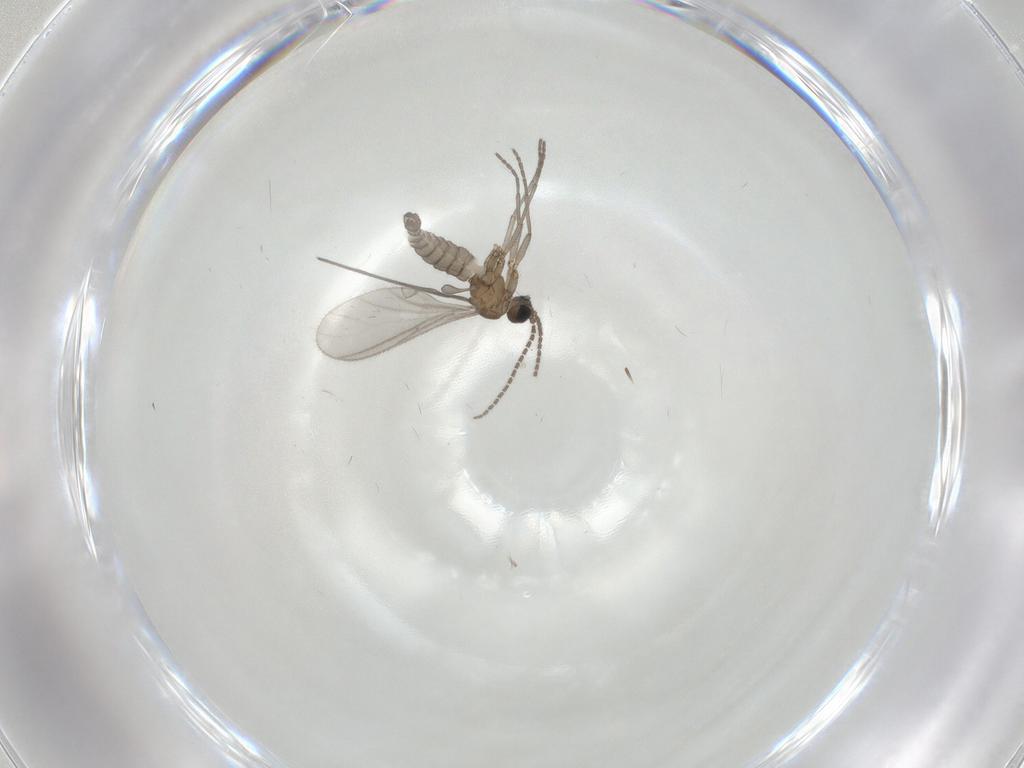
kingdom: Animalia
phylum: Arthropoda
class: Insecta
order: Diptera
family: Sciaridae
